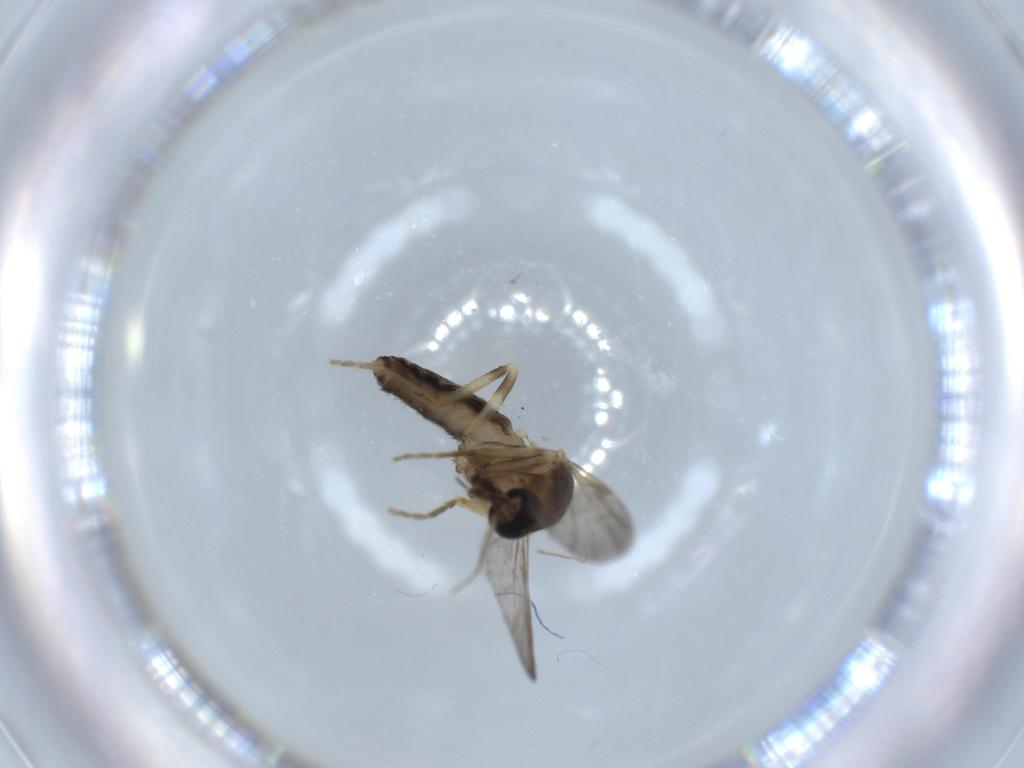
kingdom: Animalia
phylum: Arthropoda
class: Insecta
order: Diptera
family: Ceratopogonidae
